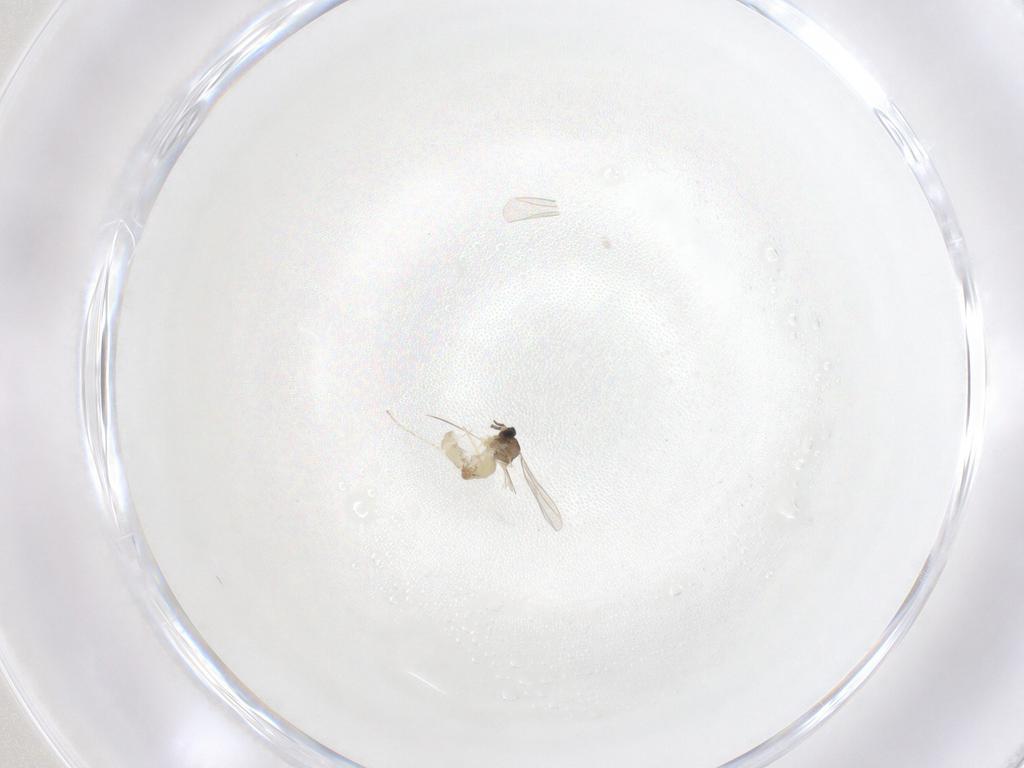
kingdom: Animalia
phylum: Arthropoda
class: Insecta
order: Diptera
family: Cecidomyiidae
